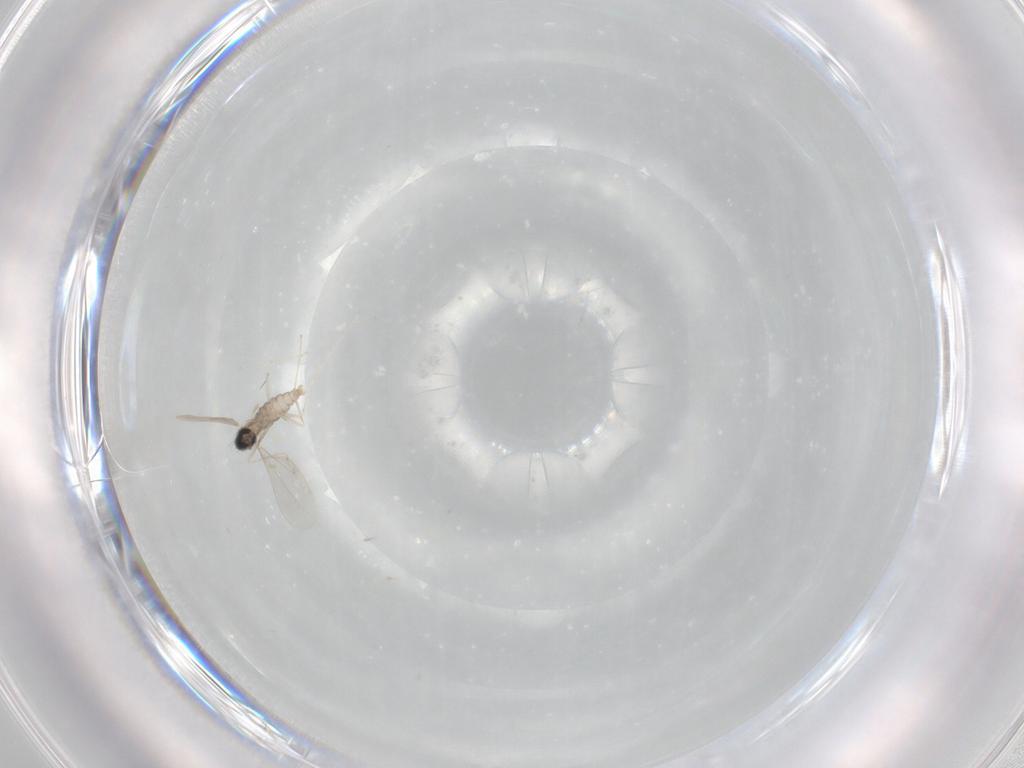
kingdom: Animalia
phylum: Arthropoda
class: Insecta
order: Diptera
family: Cecidomyiidae
